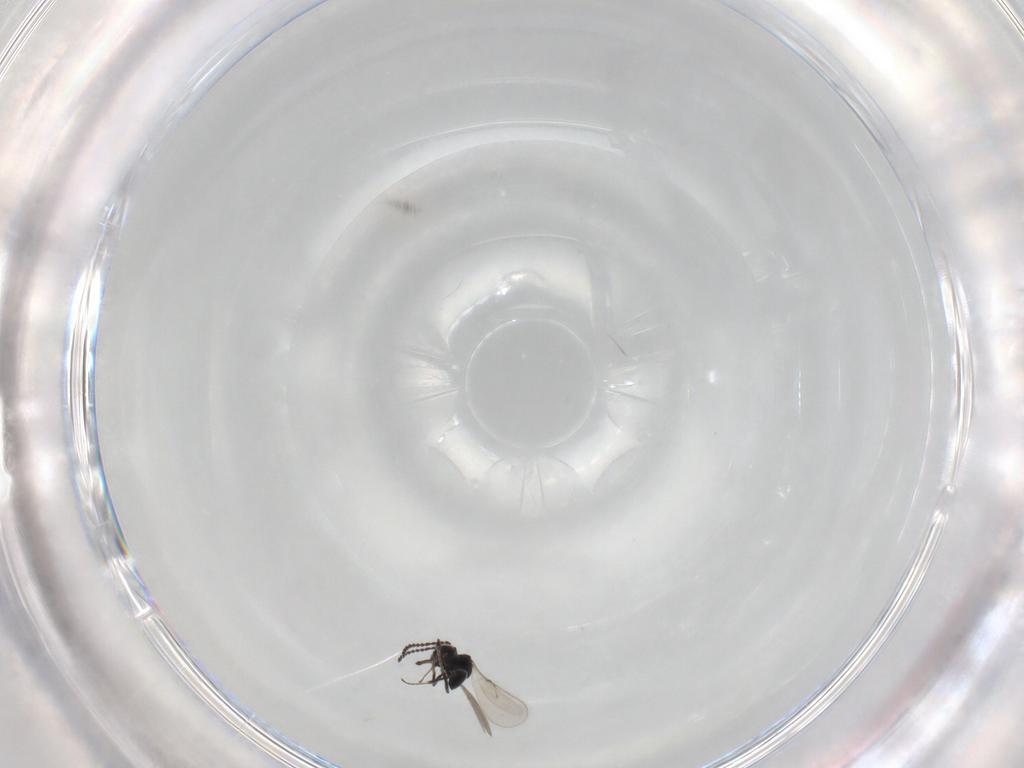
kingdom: Animalia
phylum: Arthropoda
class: Insecta
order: Hymenoptera
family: Scelionidae
